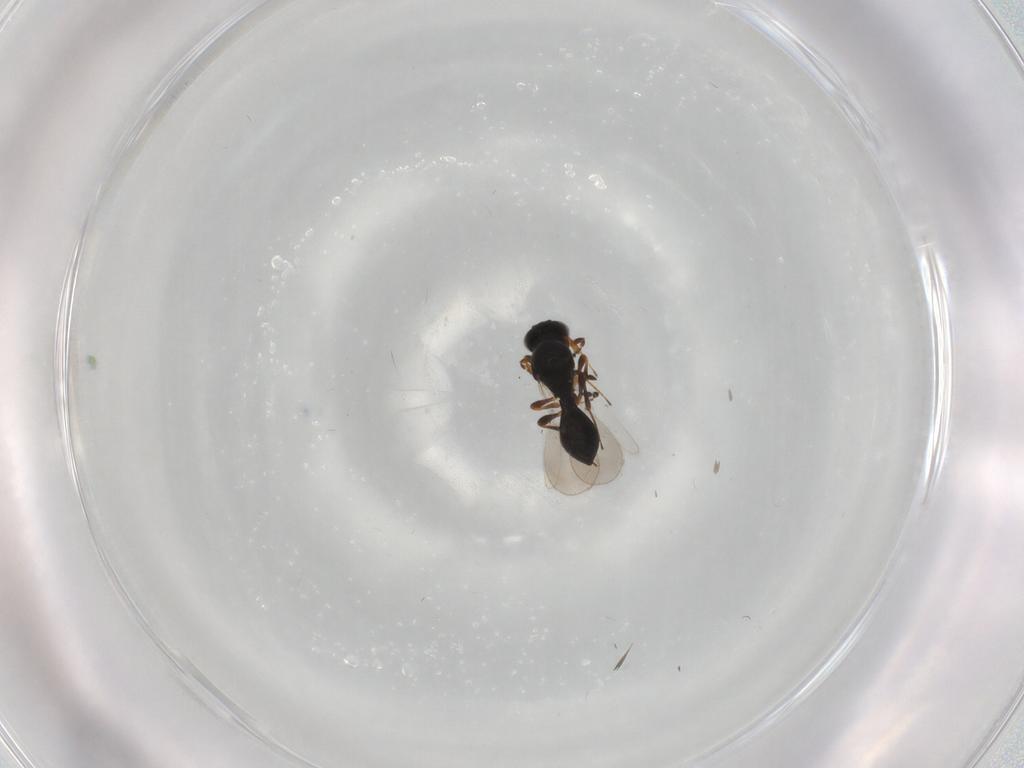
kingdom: Animalia
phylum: Arthropoda
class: Insecta
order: Hymenoptera
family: Platygastridae
